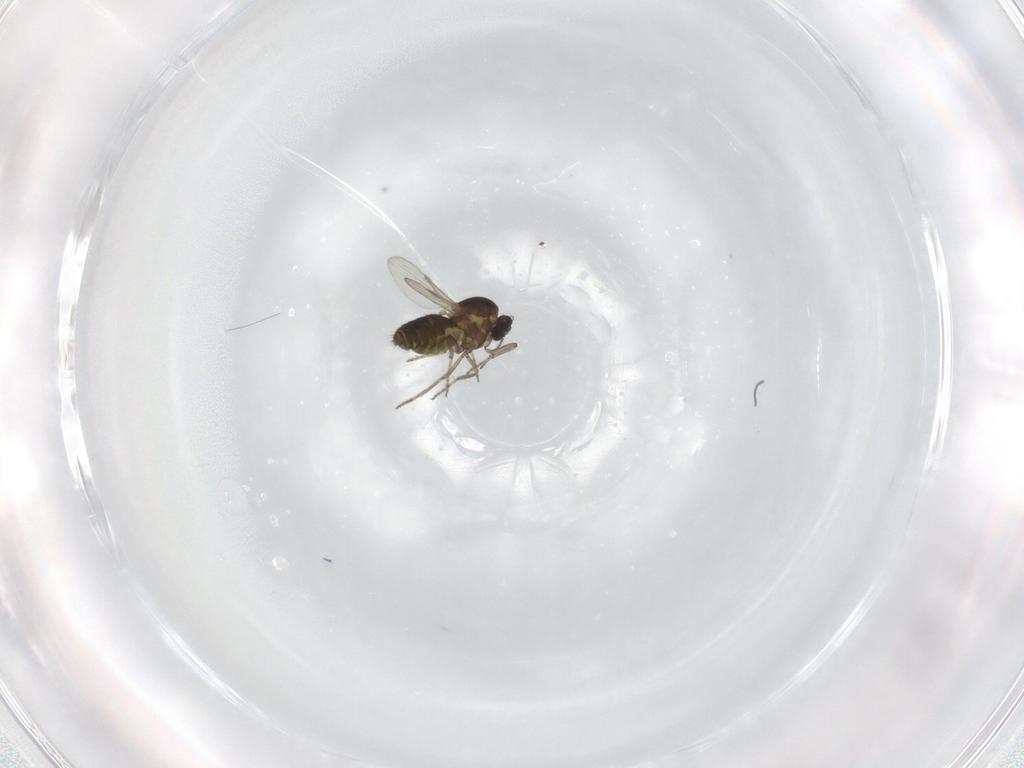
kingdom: Animalia
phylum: Arthropoda
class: Insecta
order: Diptera
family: Ceratopogonidae
